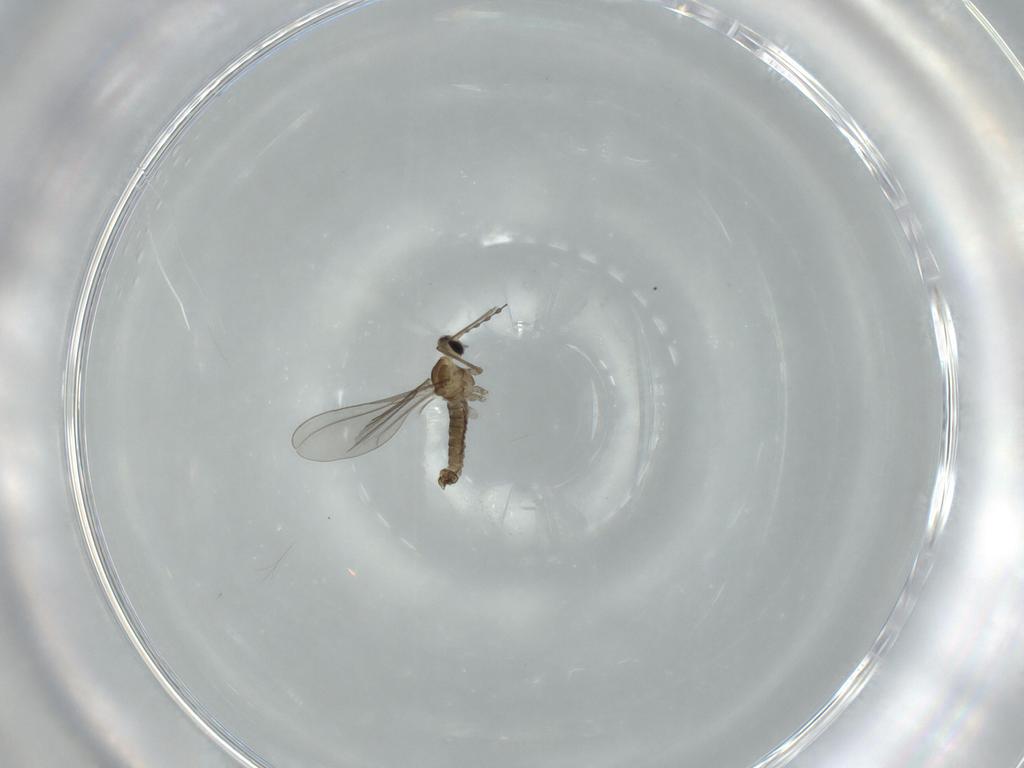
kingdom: Animalia
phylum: Arthropoda
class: Insecta
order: Diptera
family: Cecidomyiidae
